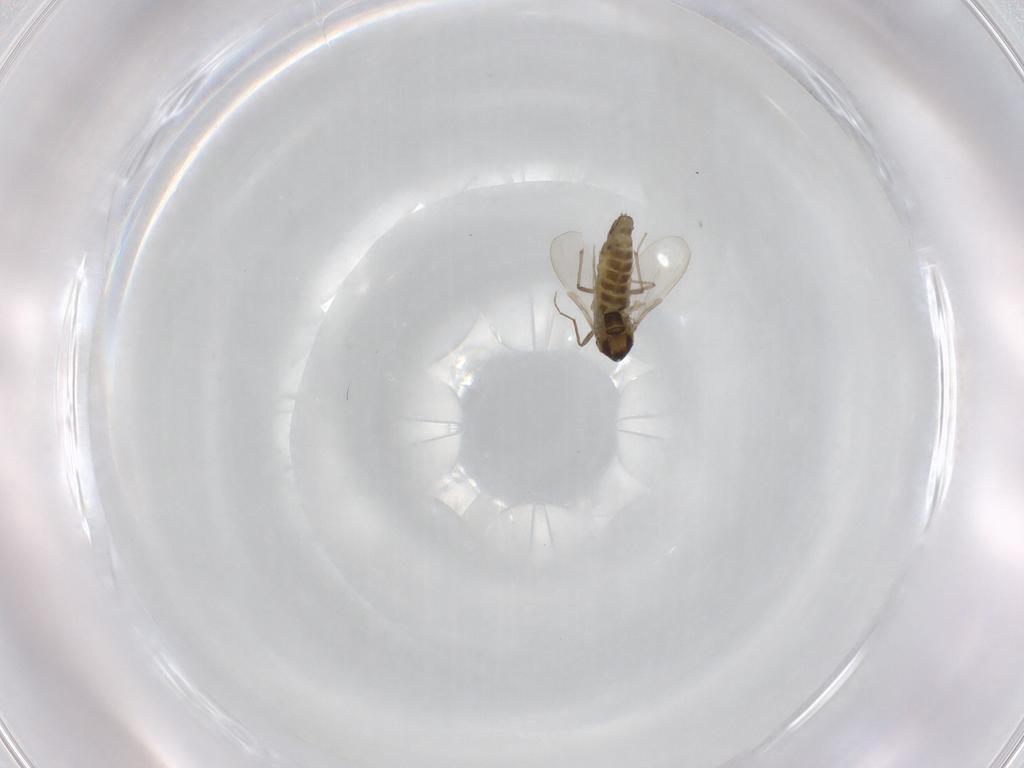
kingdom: Animalia
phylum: Arthropoda
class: Insecta
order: Diptera
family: Chironomidae
